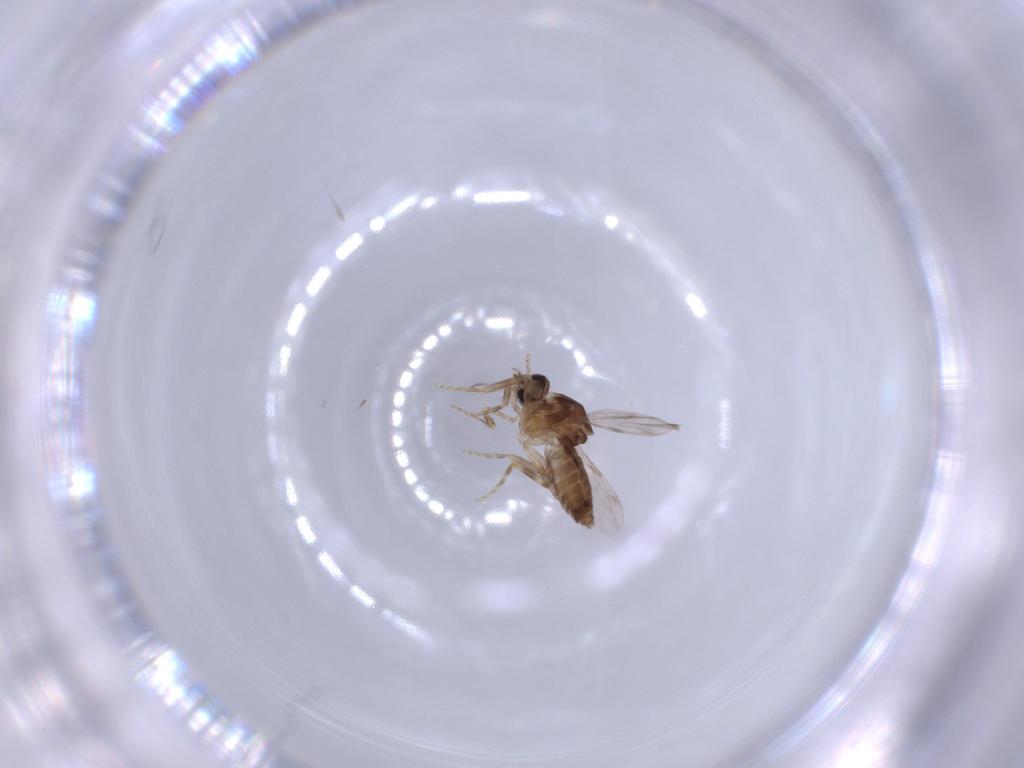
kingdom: Animalia
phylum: Arthropoda
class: Insecta
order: Diptera
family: Ceratopogonidae
